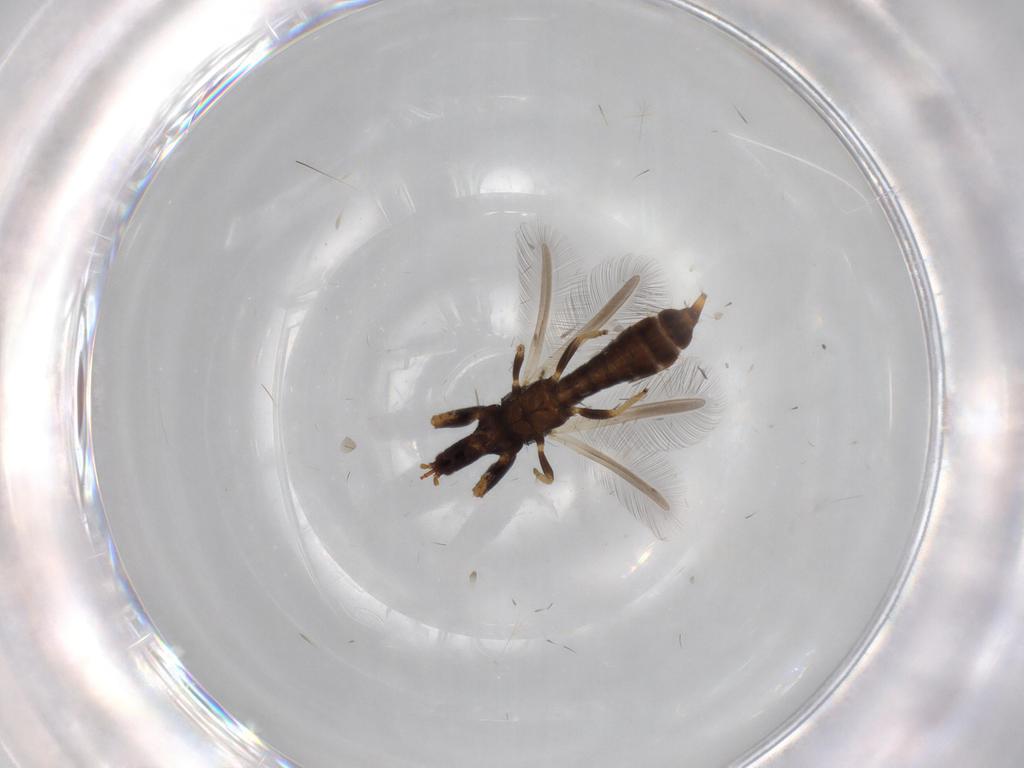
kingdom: Animalia
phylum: Arthropoda
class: Insecta
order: Thysanoptera
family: Phlaeothripidae
